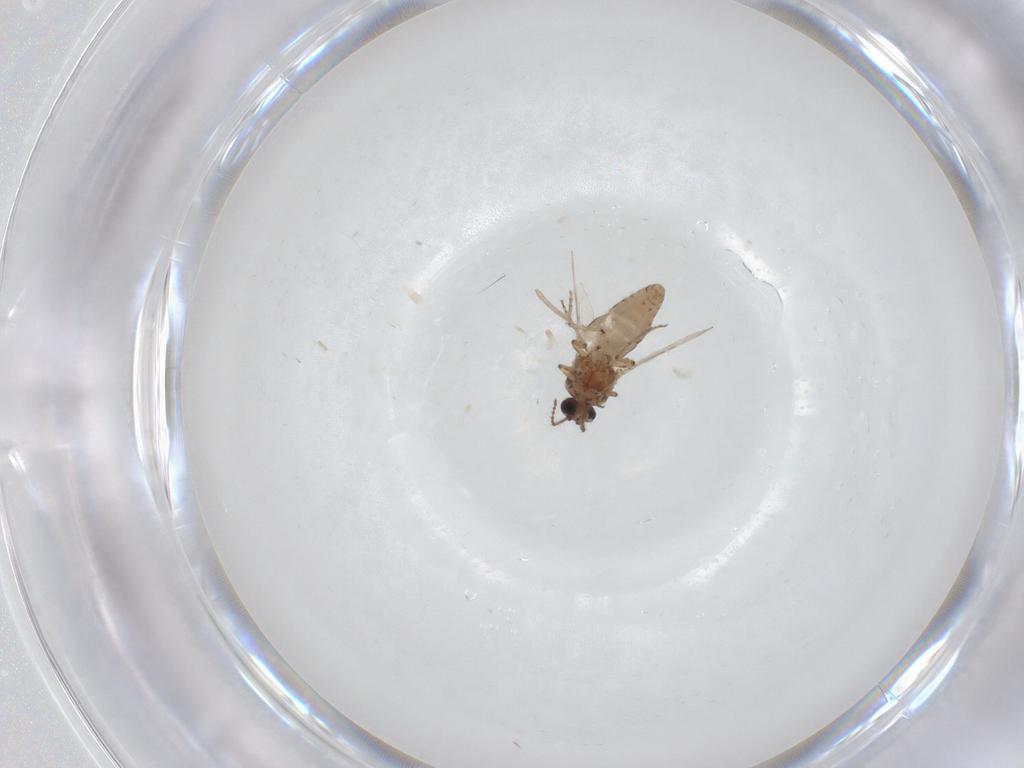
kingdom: Animalia
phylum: Arthropoda
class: Insecta
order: Diptera
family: Ceratopogonidae
